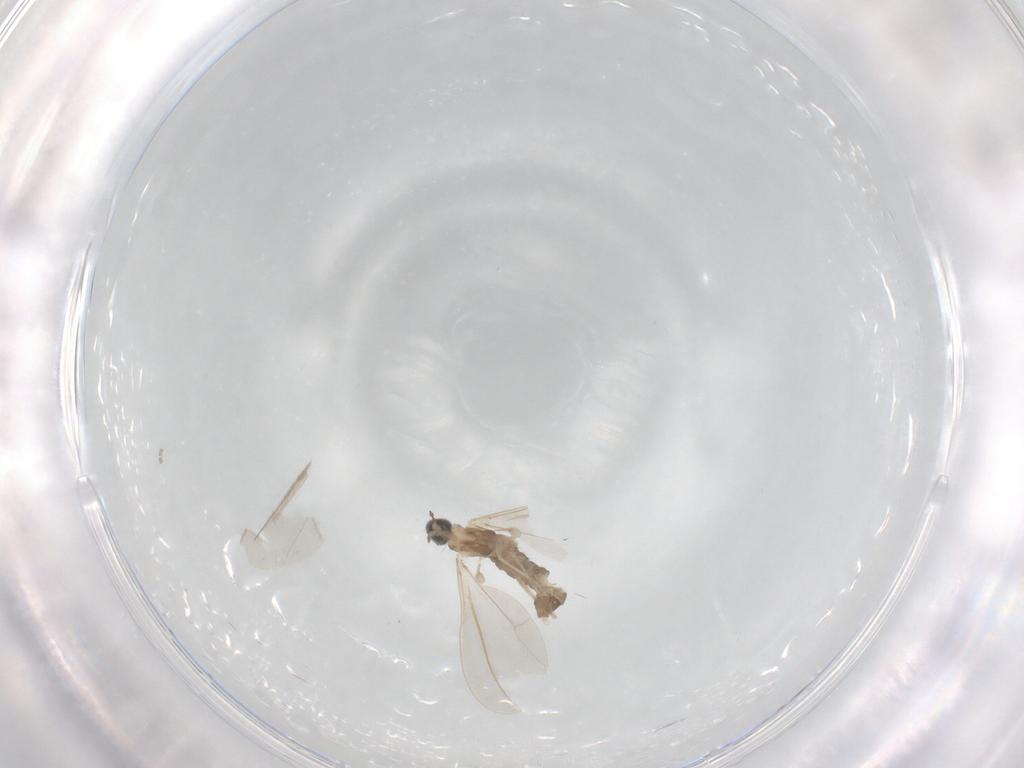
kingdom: Animalia
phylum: Arthropoda
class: Insecta
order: Diptera
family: Cecidomyiidae
